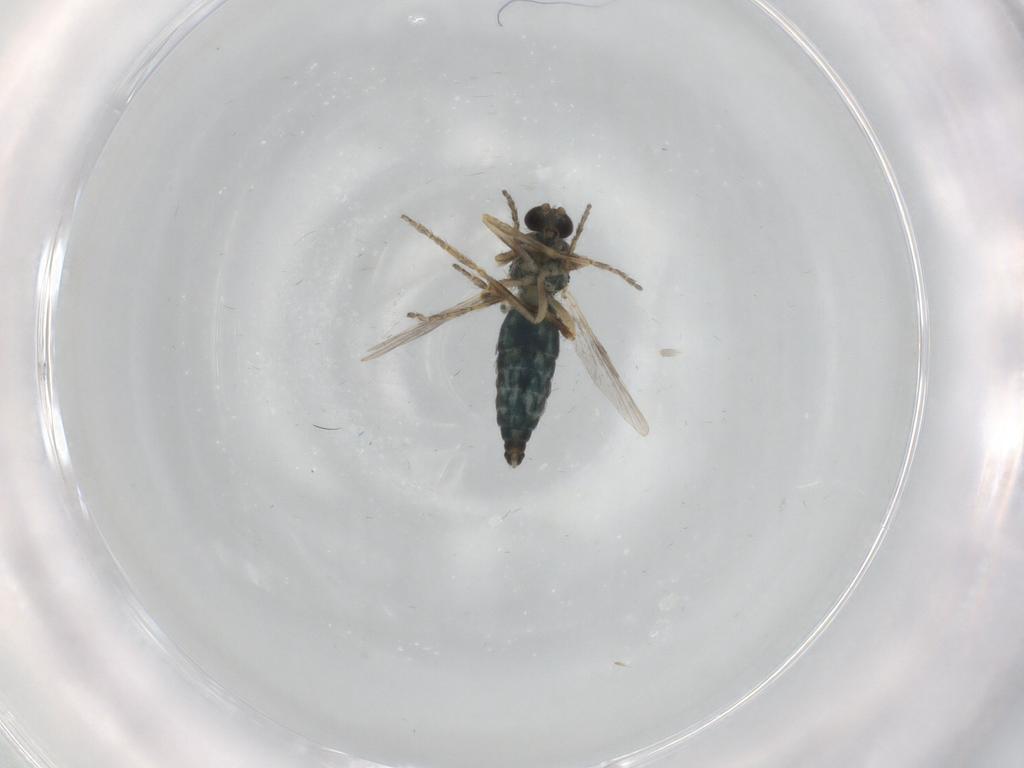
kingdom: Animalia
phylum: Arthropoda
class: Insecta
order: Diptera
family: Ceratopogonidae
